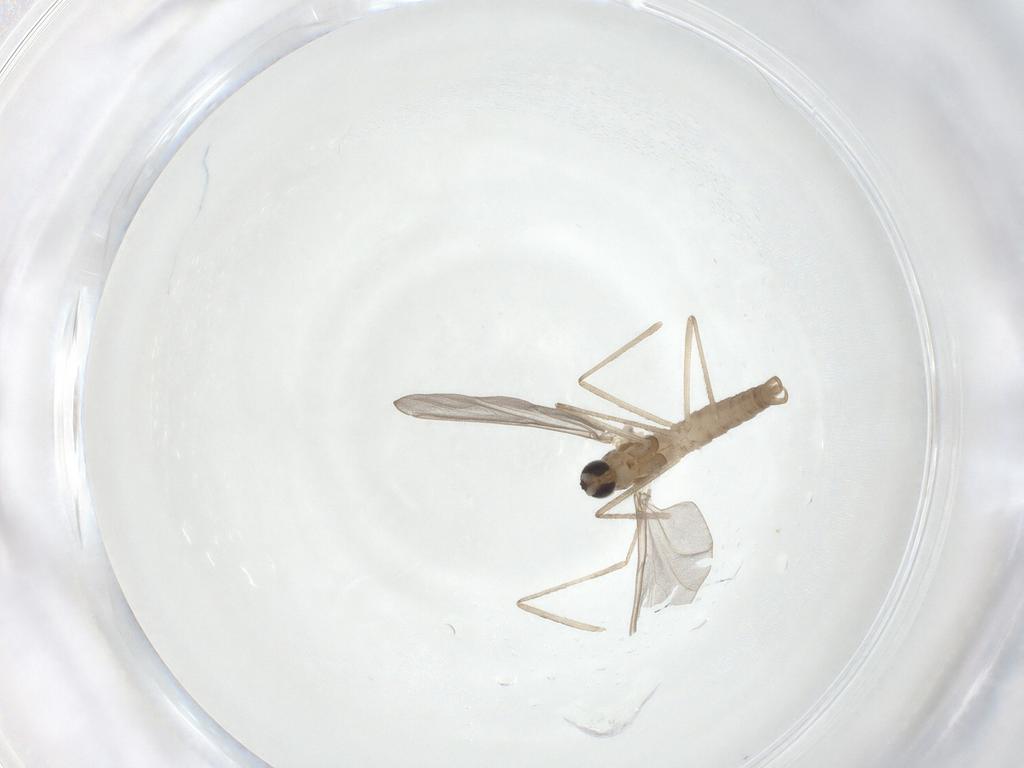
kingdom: Animalia
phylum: Arthropoda
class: Insecta
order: Diptera
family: Cecidomyiidae
